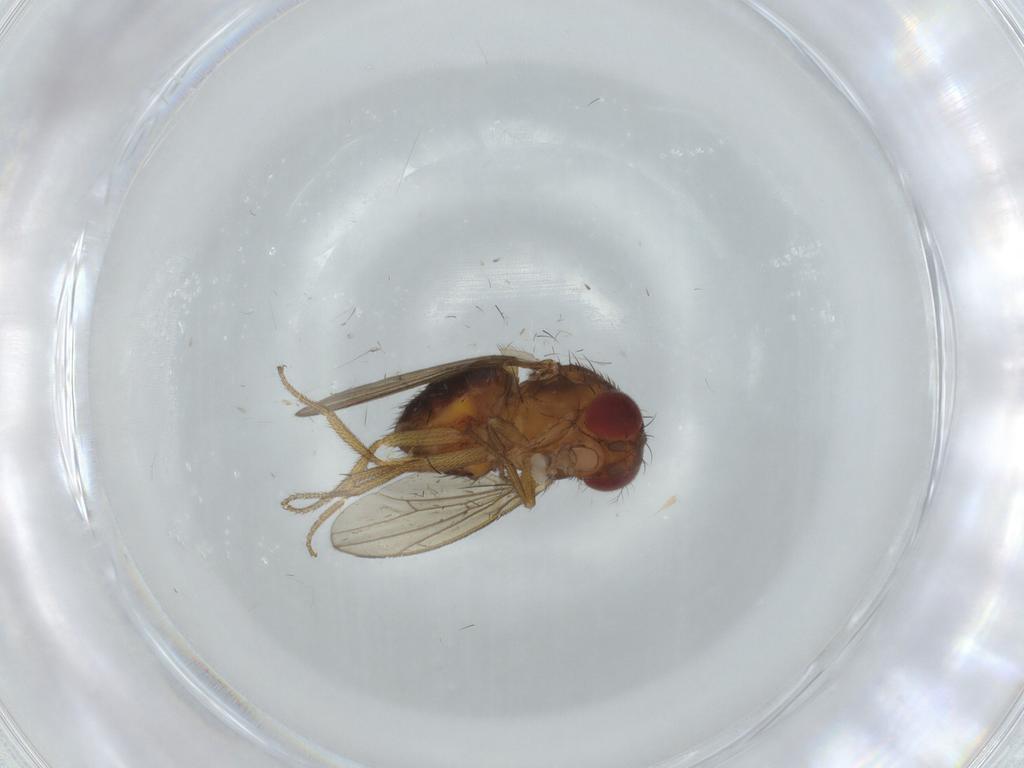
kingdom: Animalia
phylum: Arthropoda
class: Insecta
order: Diptera
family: Drosophilidae
